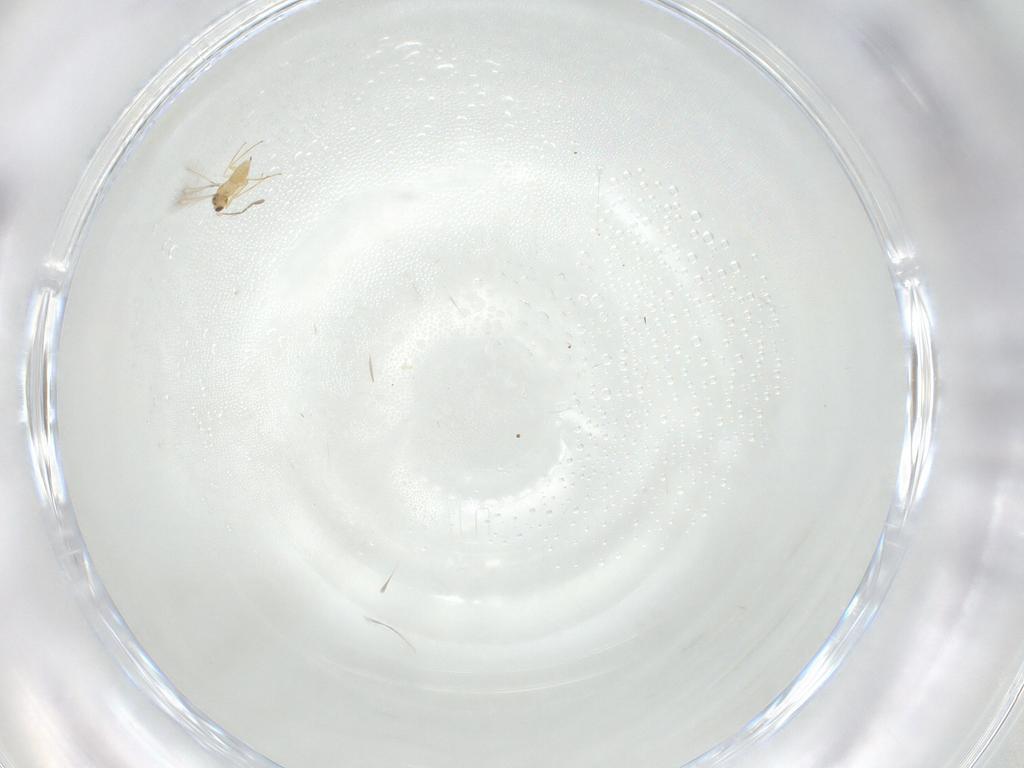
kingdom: Animalia
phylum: Arthropoda
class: Insecta
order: Hymenoptera
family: Mymaridae
